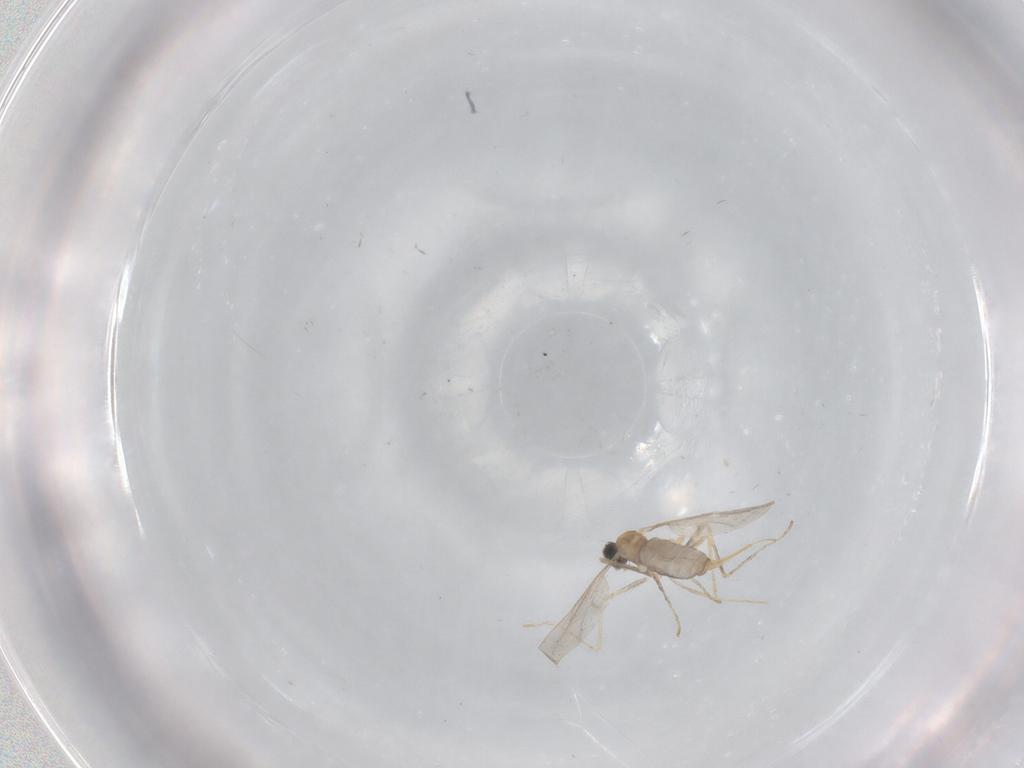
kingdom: Animalia
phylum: Arthropoda
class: Insecta
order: Diptera
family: Cecidomyiidae
